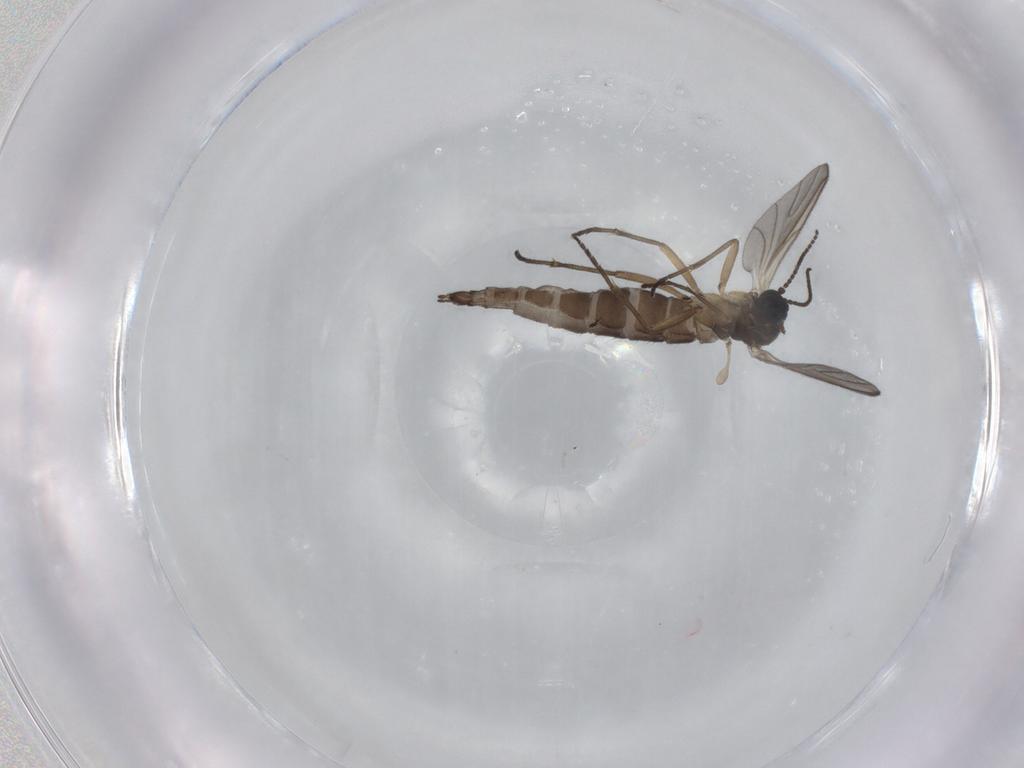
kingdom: Animalia
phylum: Arthropoda
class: Insecta
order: Diptera
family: Sciaridae
